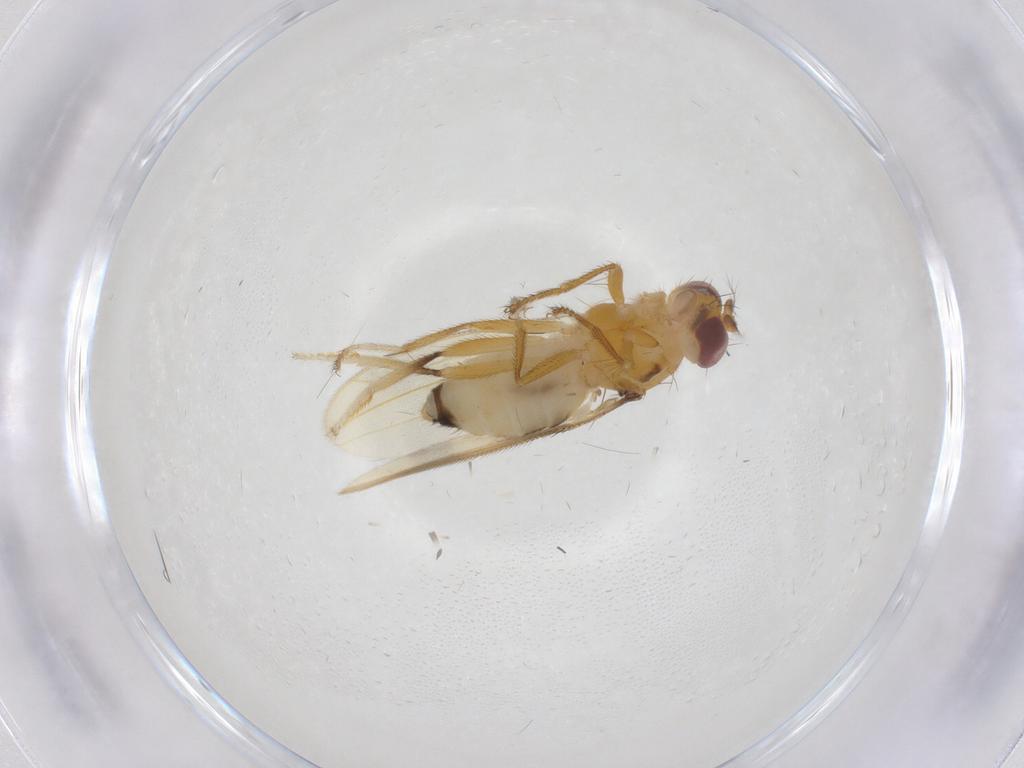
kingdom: Animalia
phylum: Arthropoda
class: Insecta
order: Diptera
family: Periscelididae
